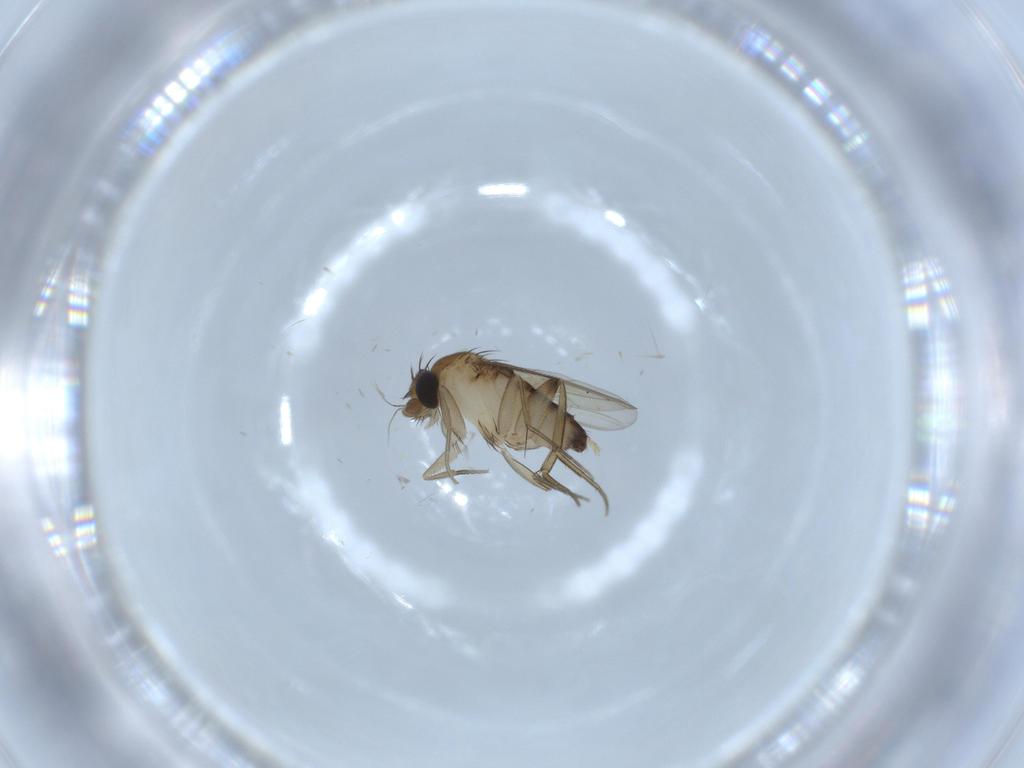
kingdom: Animalia
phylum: Arthropoda
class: Insecta
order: Diptera
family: Phoridae
